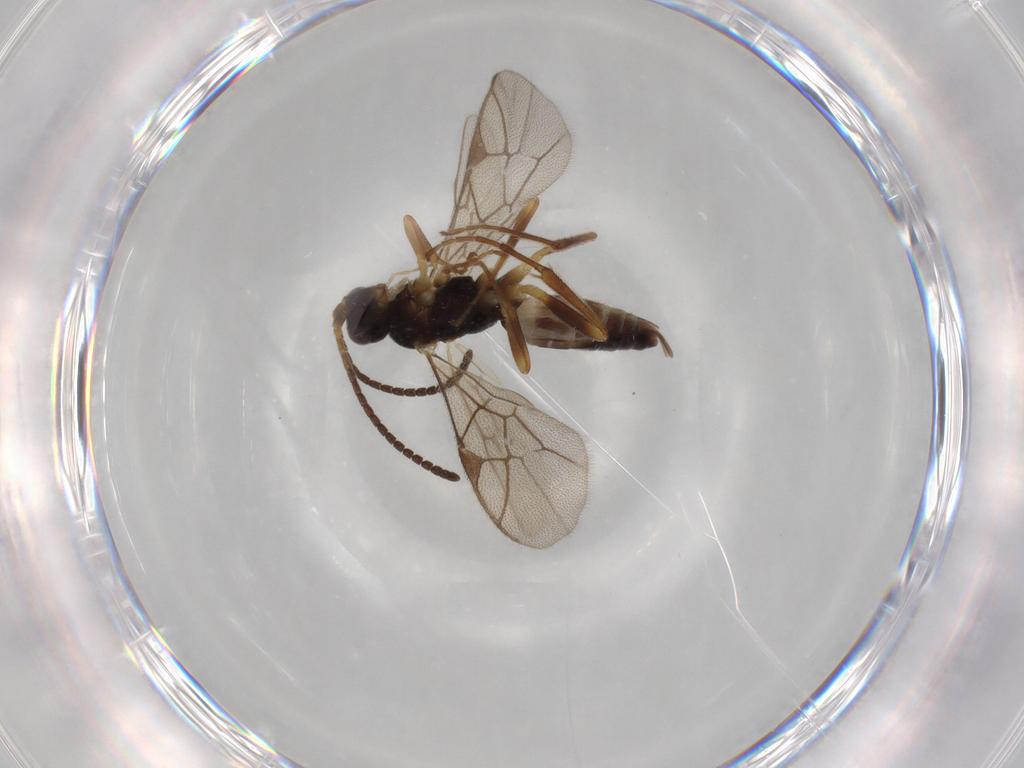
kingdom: Animalia
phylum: Arthropoda
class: Insecta
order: Hymenoptera
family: Ichneumonidae
